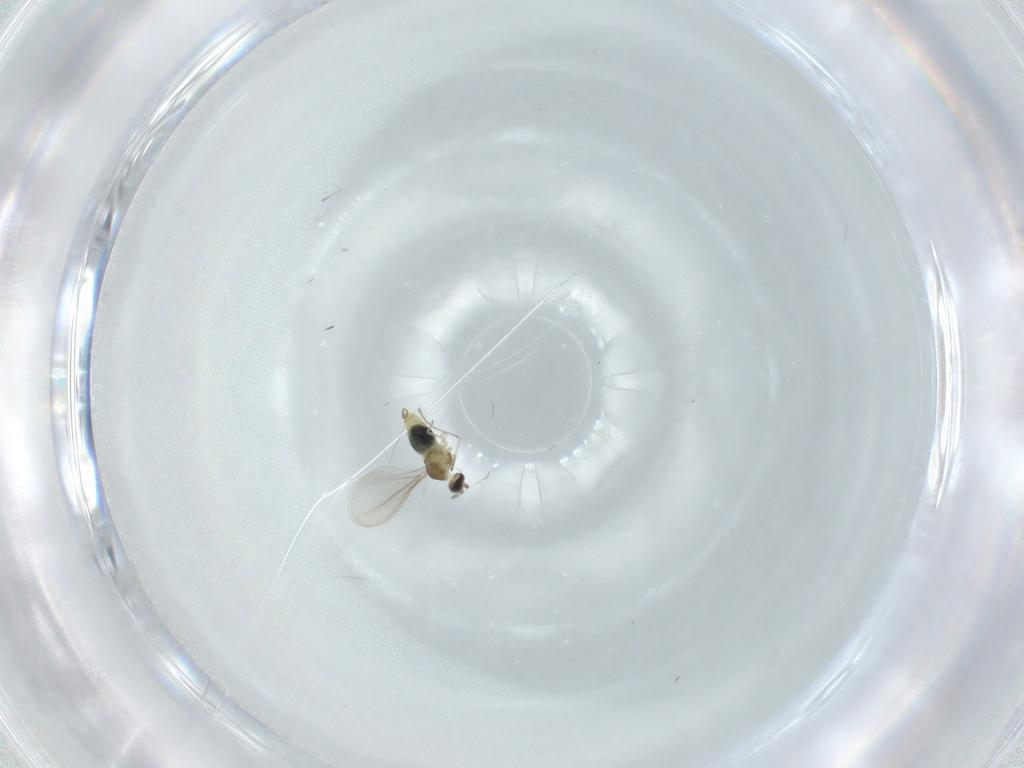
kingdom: Animalia
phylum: Arthropoda
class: Insecta
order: Diptera
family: Cecidomyiidae
